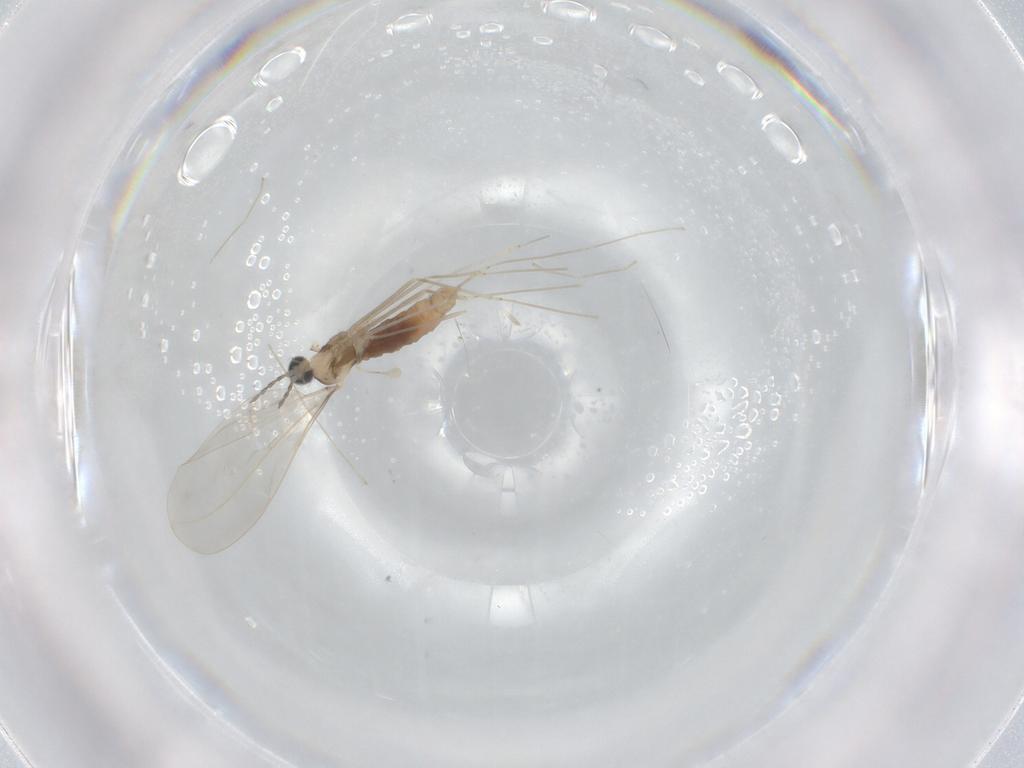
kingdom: Animalia
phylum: Arthropoda
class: Insecta
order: Diptera
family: Cecidomyiidae
